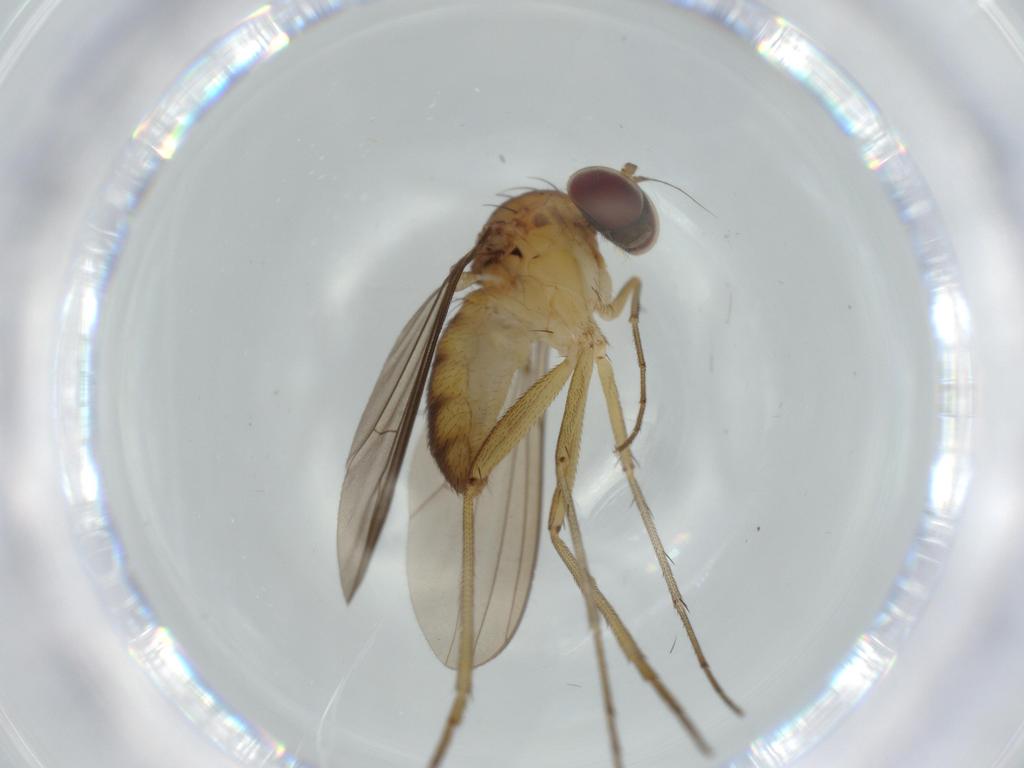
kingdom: Animalia
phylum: Arthropoda
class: Insecta
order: Diptera
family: Dolichopodidae
